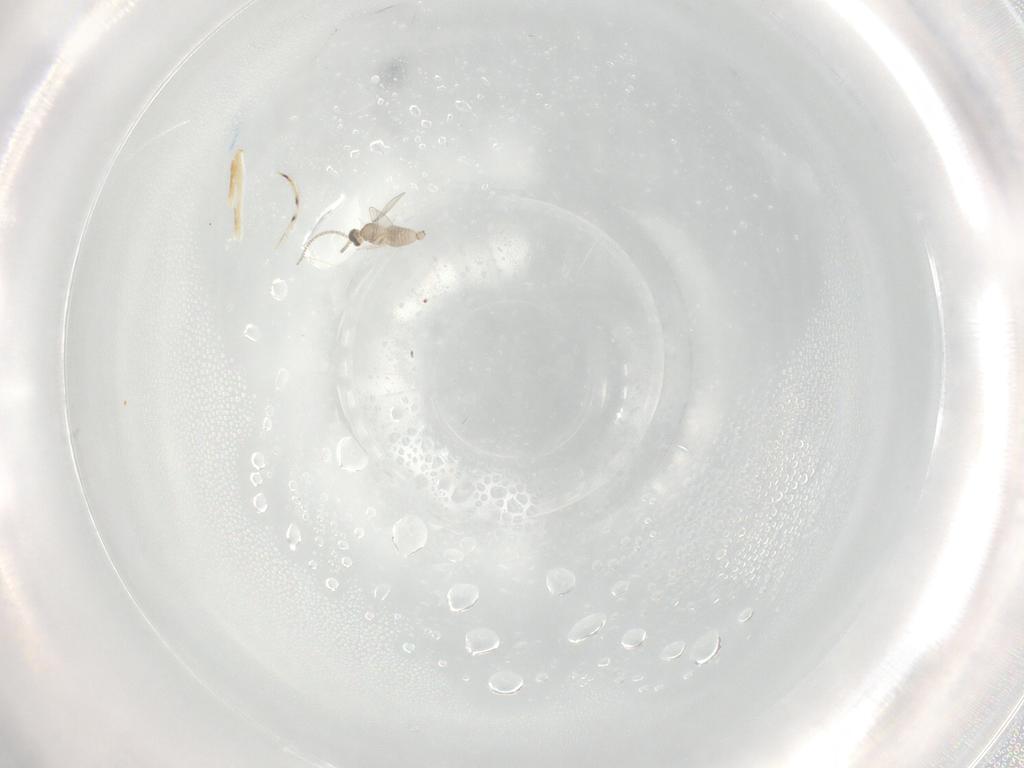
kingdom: Animalia
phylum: Arthropoda
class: Insecta
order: Diptera
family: Cecidomyiidae
